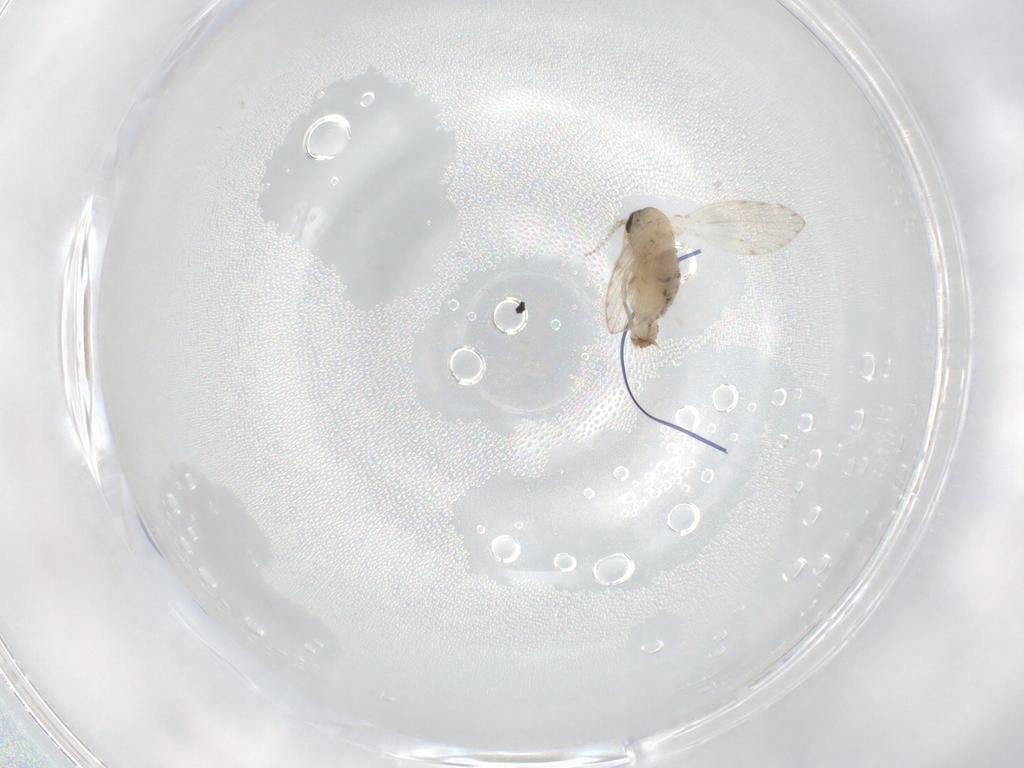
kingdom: Animalia
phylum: Arthropoda
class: Insecta
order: Diptera
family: Psychodidae
